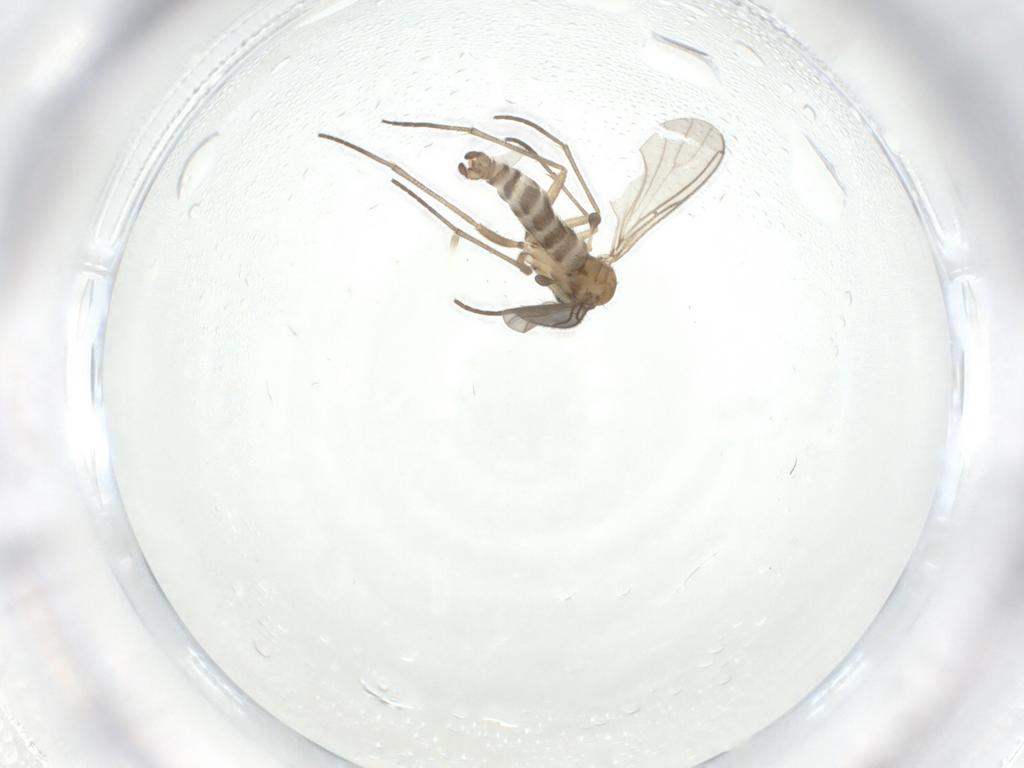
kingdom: Animalia
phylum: Arthropoda
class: Insecta
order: Diptera
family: Sciaridae
